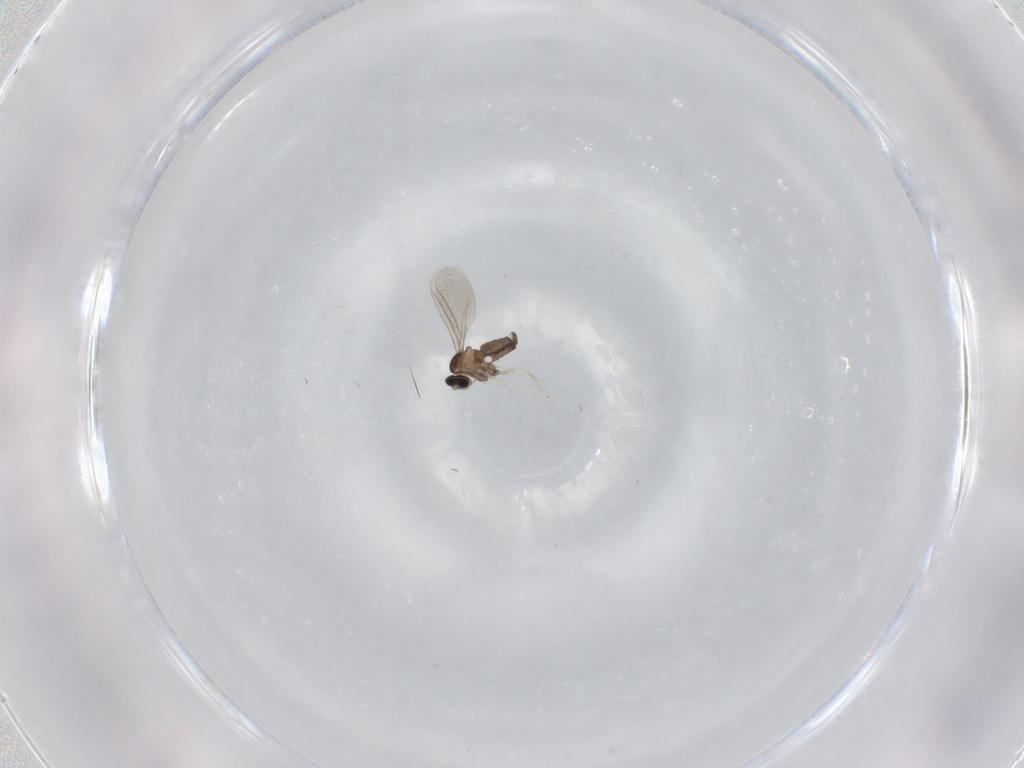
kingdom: Animalia
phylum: Arthropoda
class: Insecta
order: Diptera
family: Cecidomyiidae
